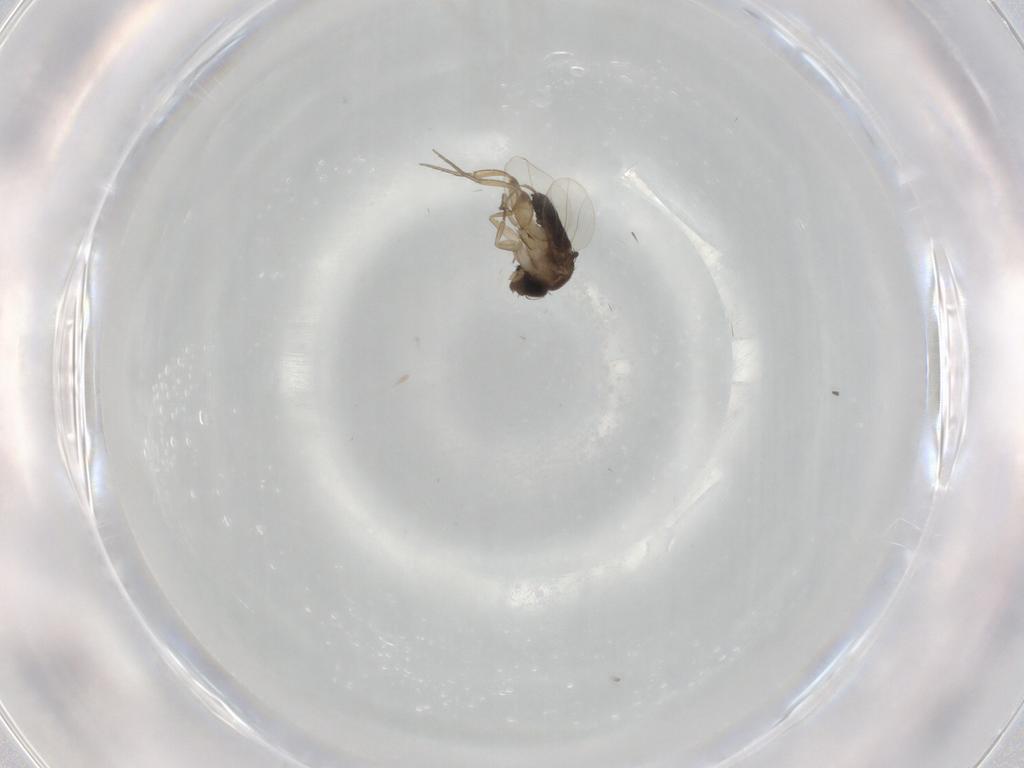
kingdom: Animalia
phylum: Arthropoda
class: Insecta
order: Diptera
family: Phoridae
